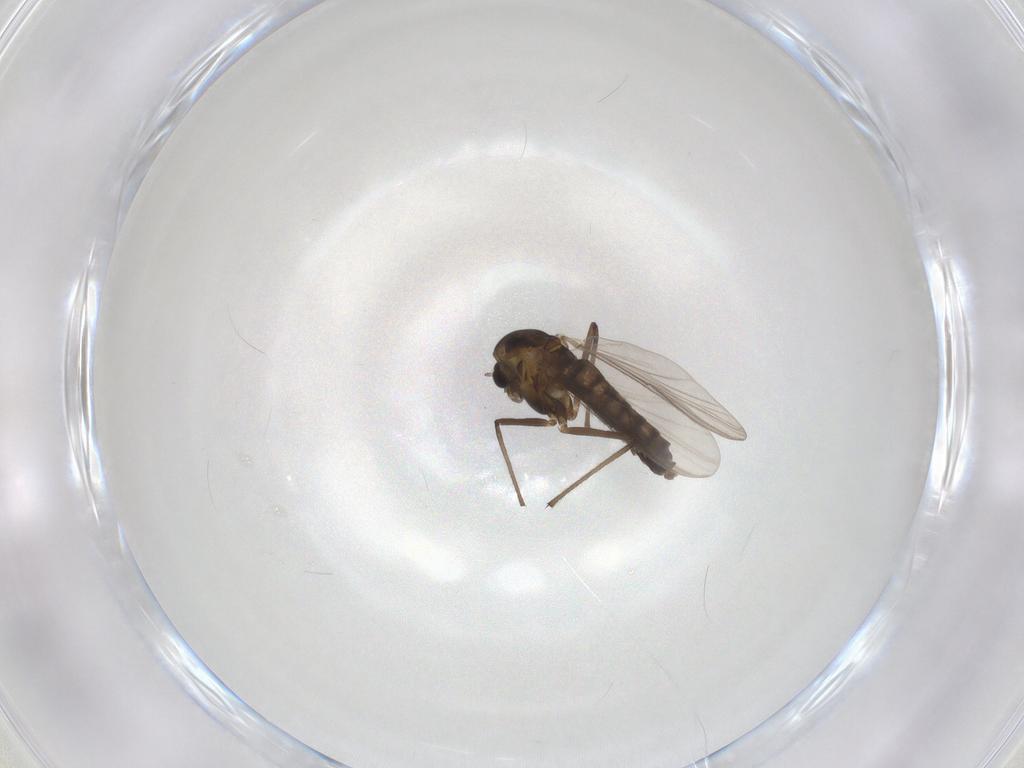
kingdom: Animalia
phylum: Arthropoda
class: Insecta
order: Diptera
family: Chironomidae
